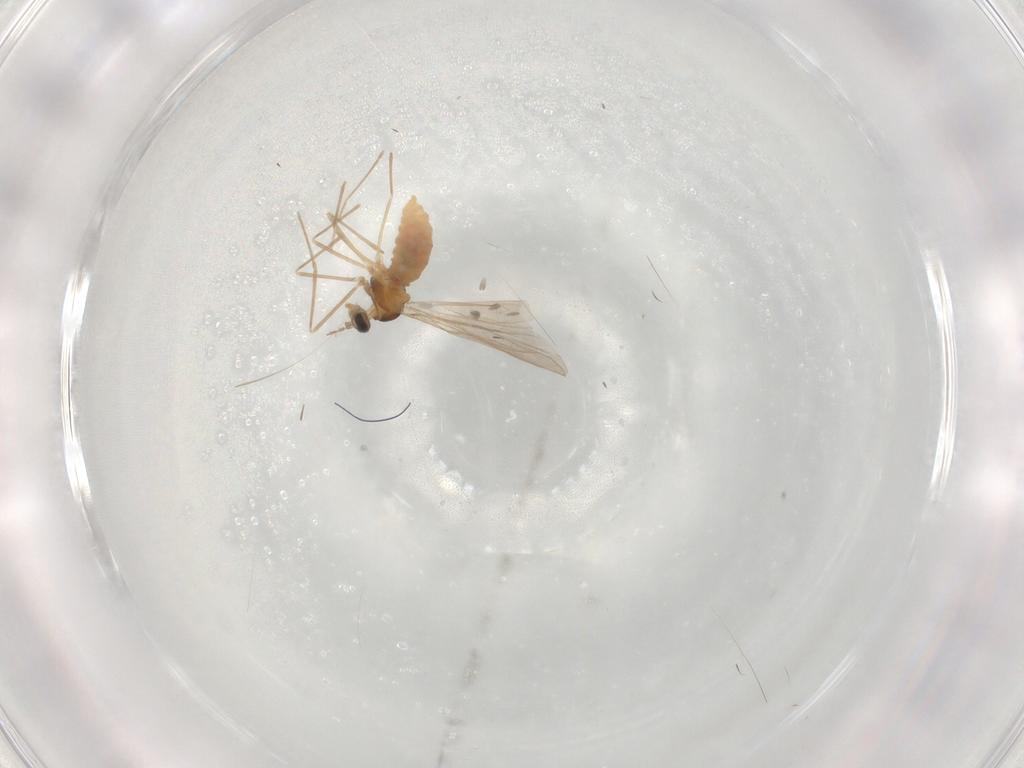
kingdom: Animalia
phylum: Arthropoda
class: Insecta
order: Diptera
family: Cecidomyiidae
